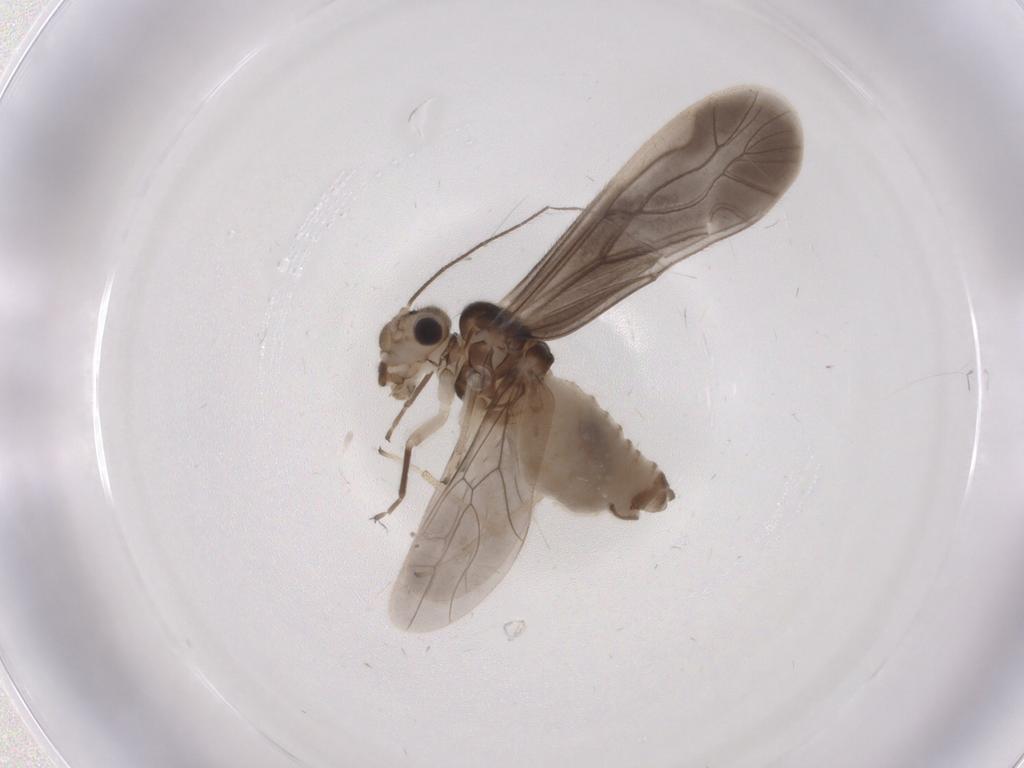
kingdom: Animalia
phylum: Arthropoda
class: Insecta
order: Psocodea
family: Caeciliusidae
